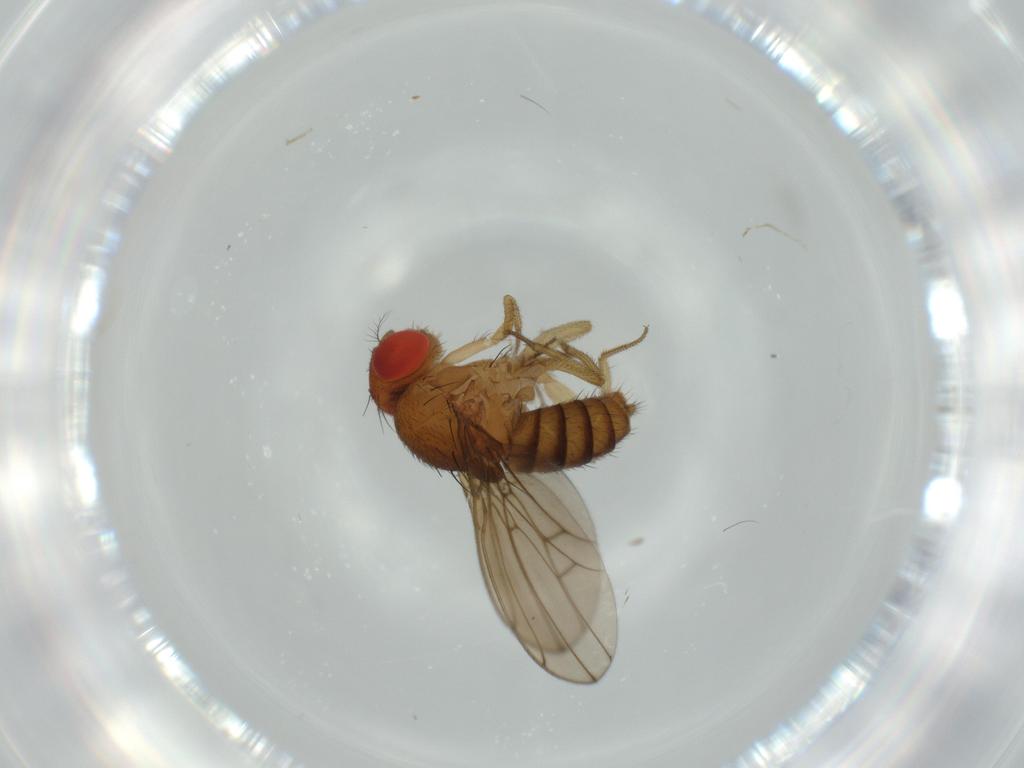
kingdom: Animalia
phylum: Arthropoda
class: Insecta
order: Diptera
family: Drosophilidae
